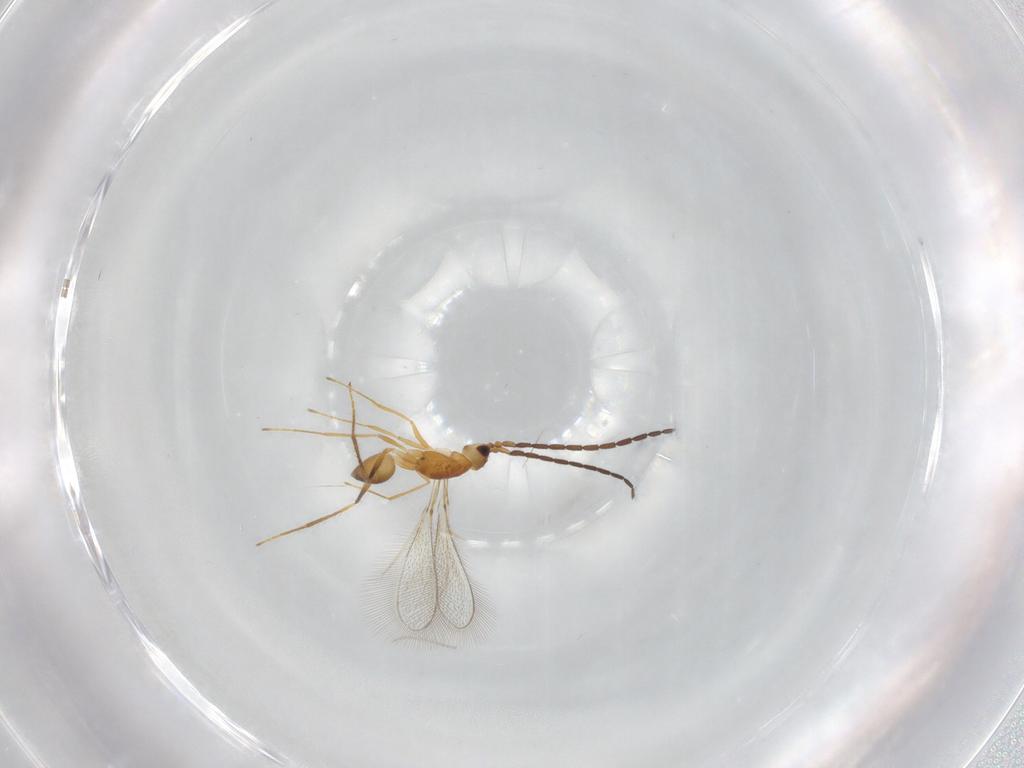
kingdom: Animalia
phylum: Arthropoda
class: Insecta
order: Hymenoptera
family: Mymaridae
